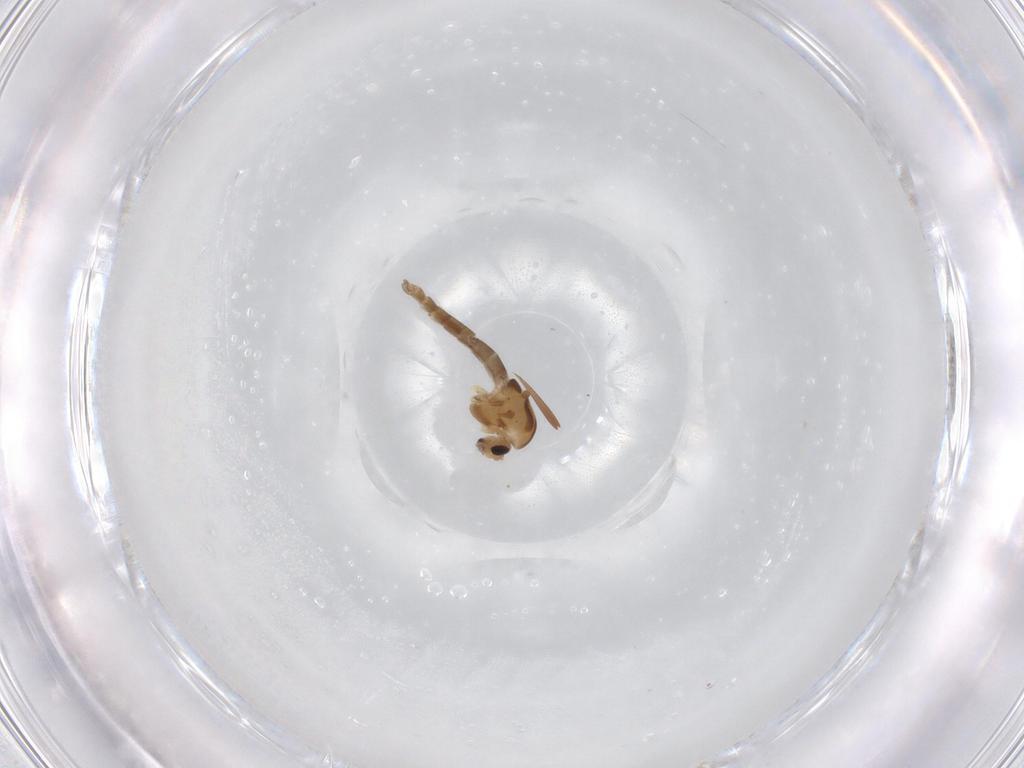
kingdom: Animalia
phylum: Arthropoda
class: Insecta
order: Diptera
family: Chironomidae
